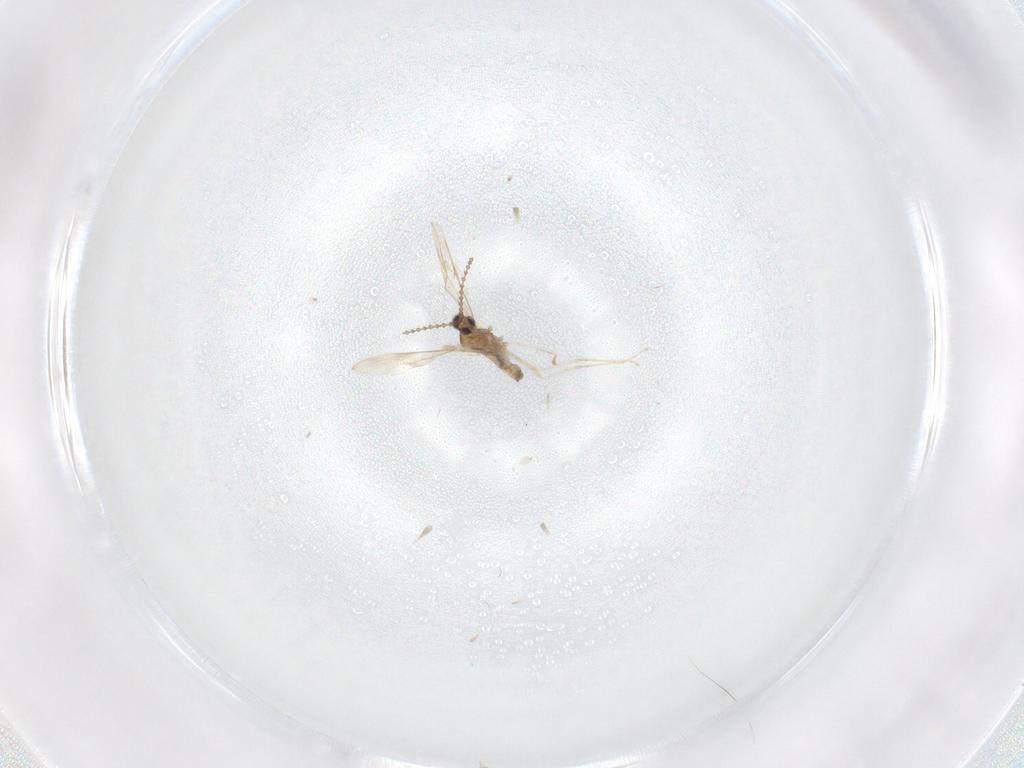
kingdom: Animalia
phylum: Arthropoda
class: Insecta
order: Diptera
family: Cecidomyiidae
